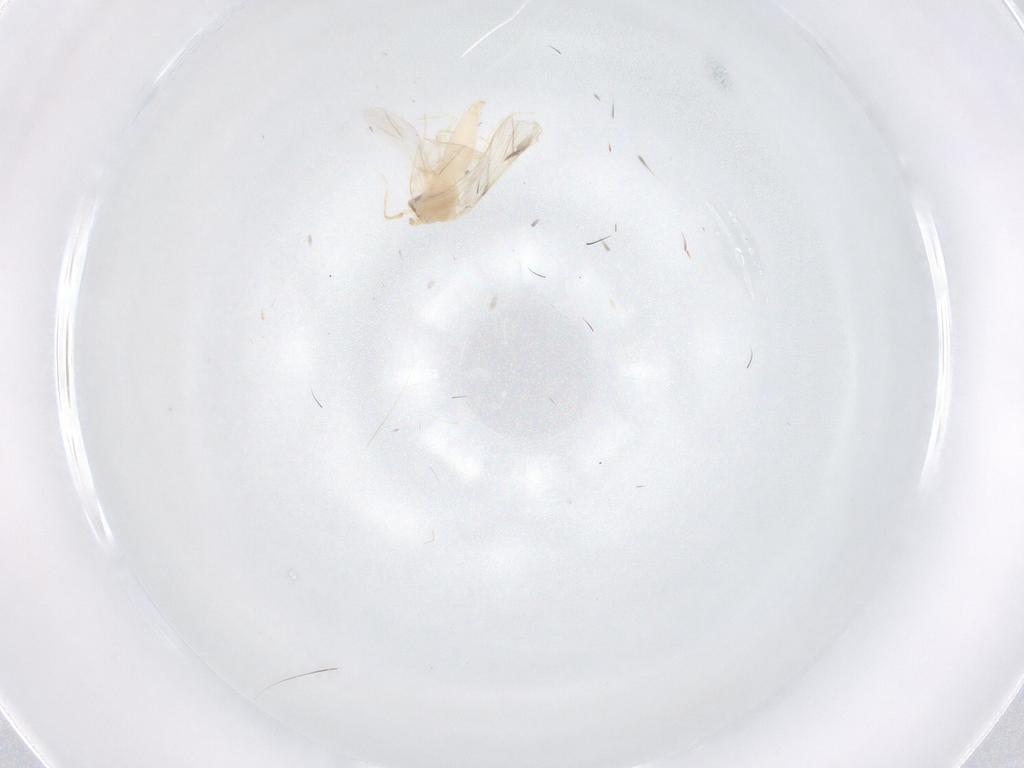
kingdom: Animalia
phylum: Arthropoda
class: Insecta
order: Hemiptera
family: Aleyrodidae
